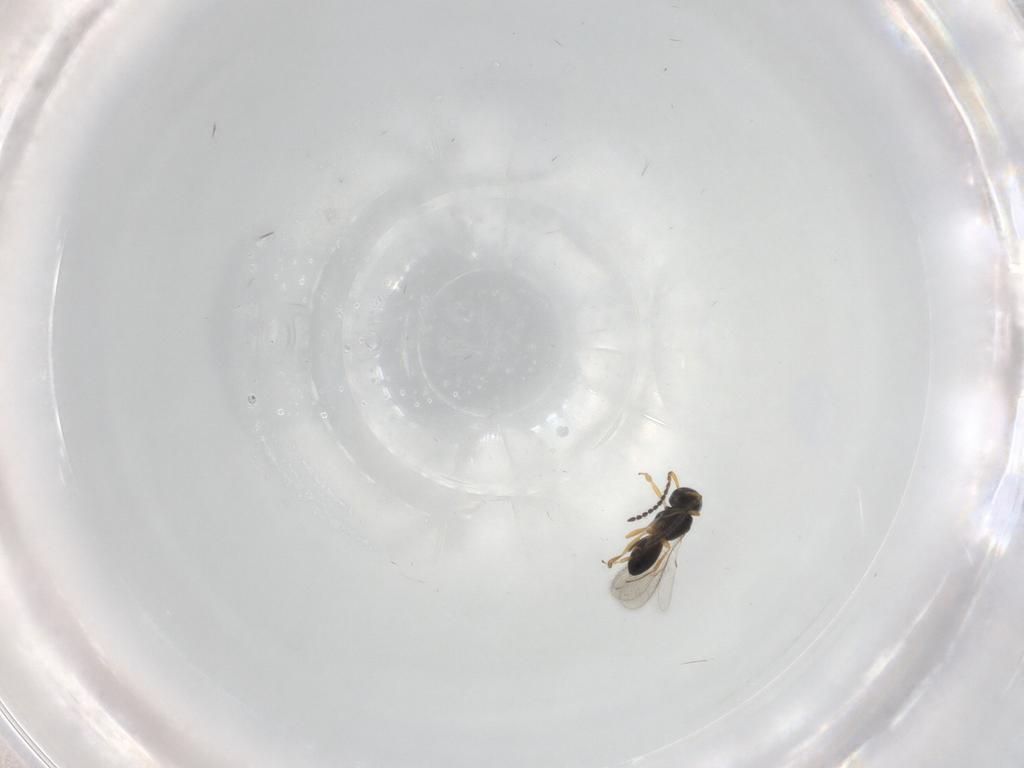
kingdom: Animalia
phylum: Arthropoda
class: Insecta
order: Hymenoptera
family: Scelionidae
